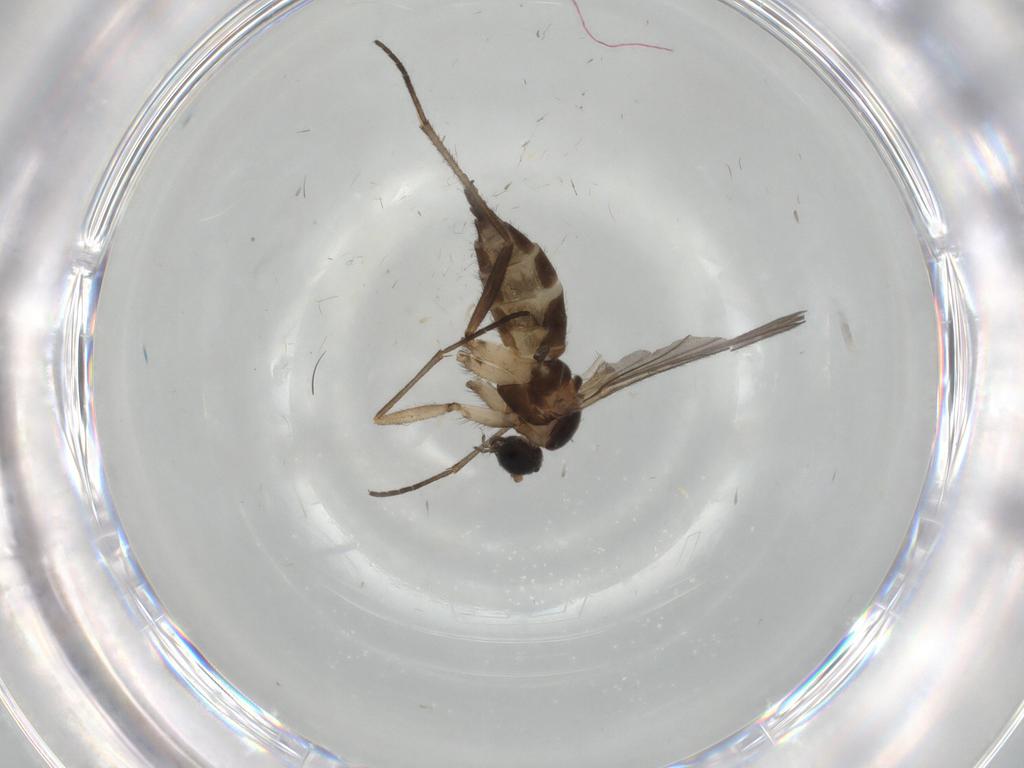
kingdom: Animalia
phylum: Arthropoda
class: Insecta
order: Diptera
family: Sciaridae
